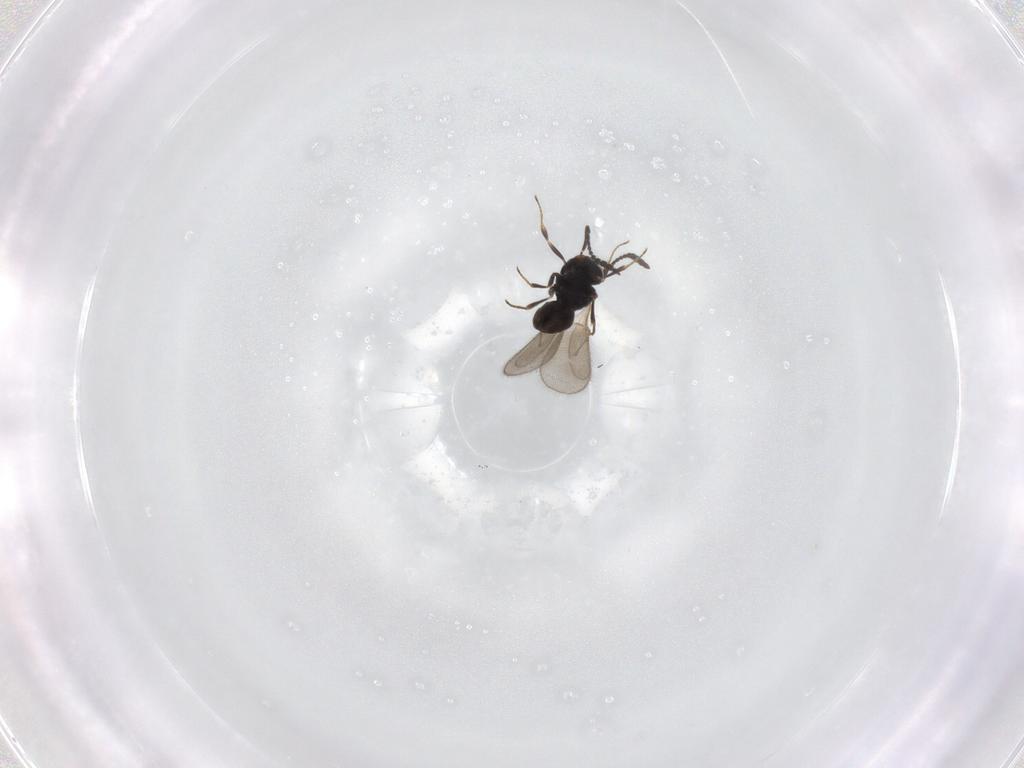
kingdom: Animalia
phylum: Arthropoda
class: Insecta
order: Hymenoptera
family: Scelionidae
